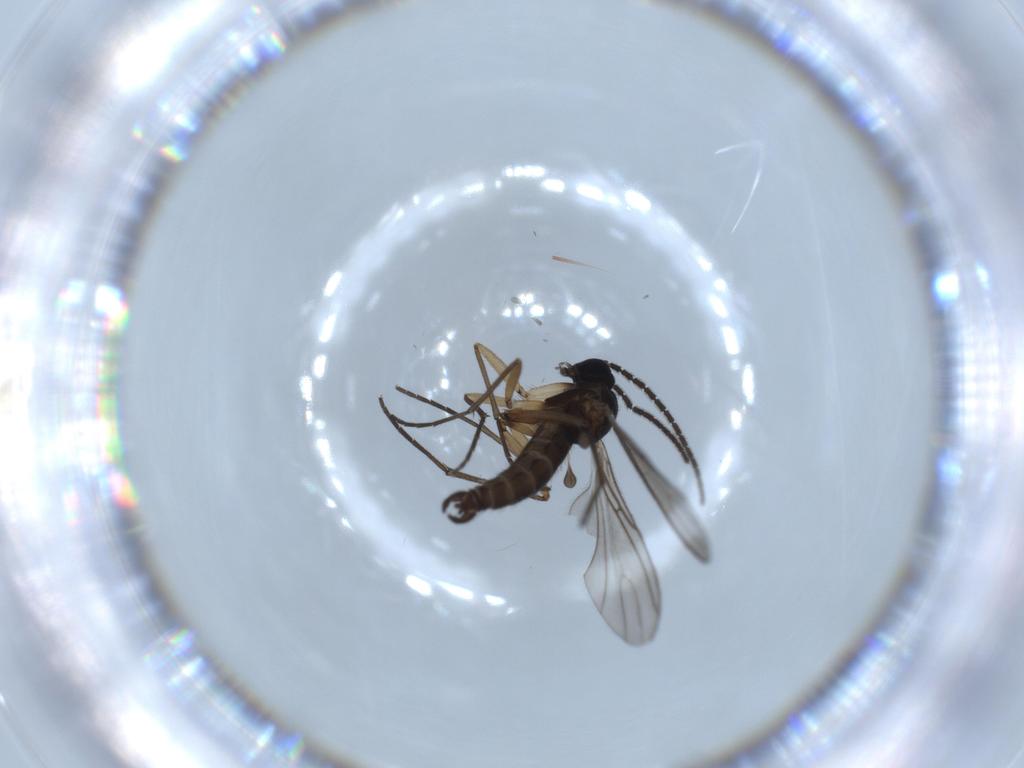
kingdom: Animalia
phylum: Arthropoda
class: Insecta
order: Diptera
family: Sciaridae
